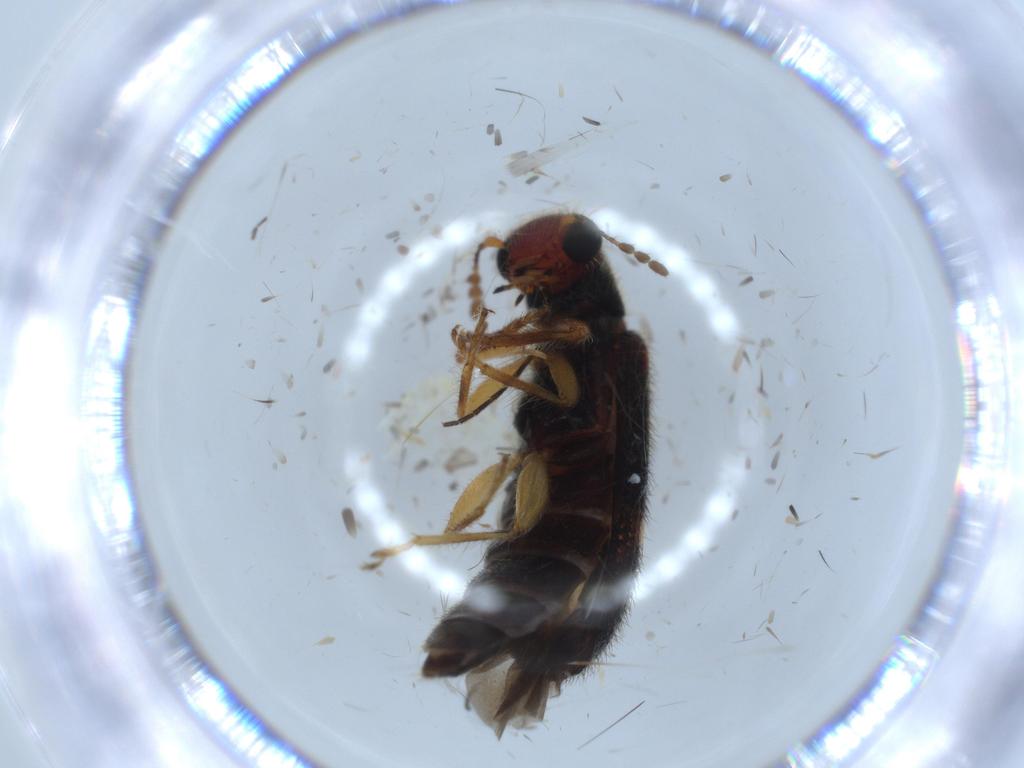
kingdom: Animalia
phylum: Arthropoda
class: Insecta
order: Coleoptera
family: Cleridae
